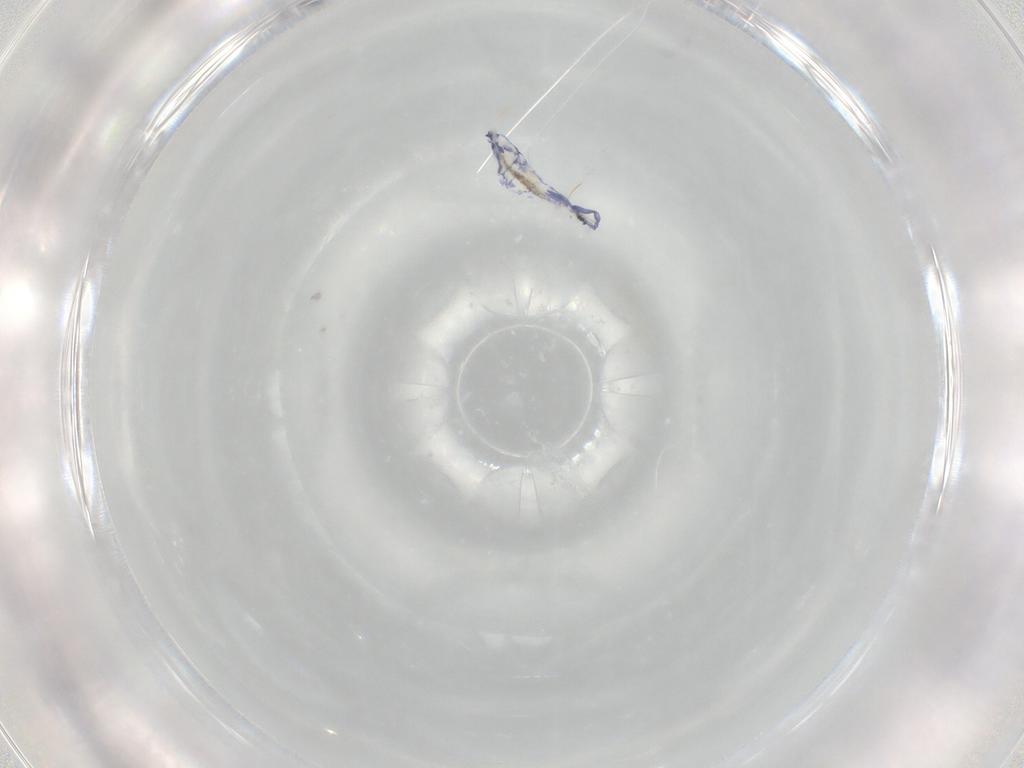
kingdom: Animalia
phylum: Arthropoda
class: Collembola
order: Entomobryomorpha
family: Entomobryidae
